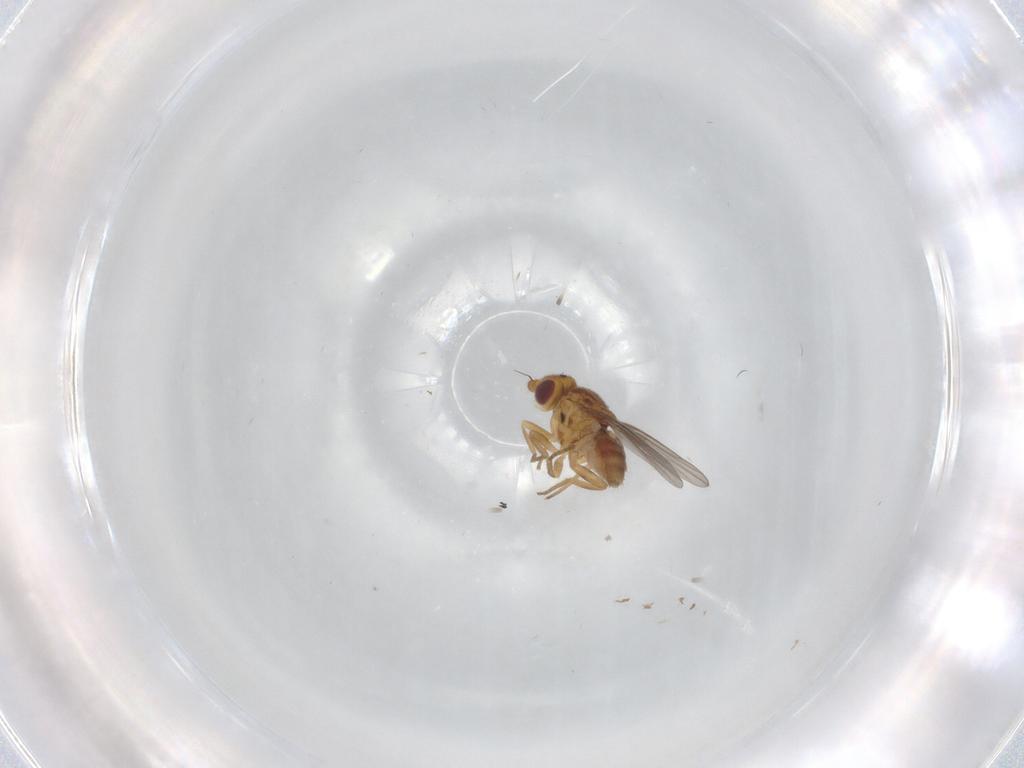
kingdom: Animalia
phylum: Arthropoda
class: Insecta
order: Diptera
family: Chloropidae
